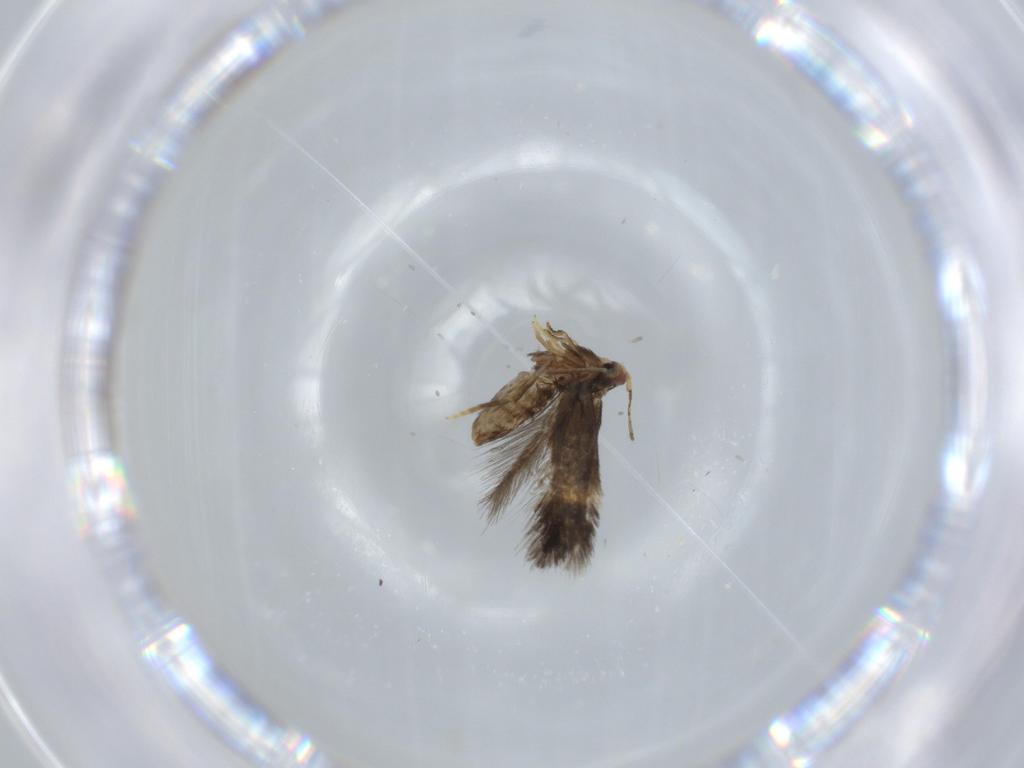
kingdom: Animalia
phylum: Arthropoda
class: Insecta
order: Lepidoptera
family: Nepticulidae
